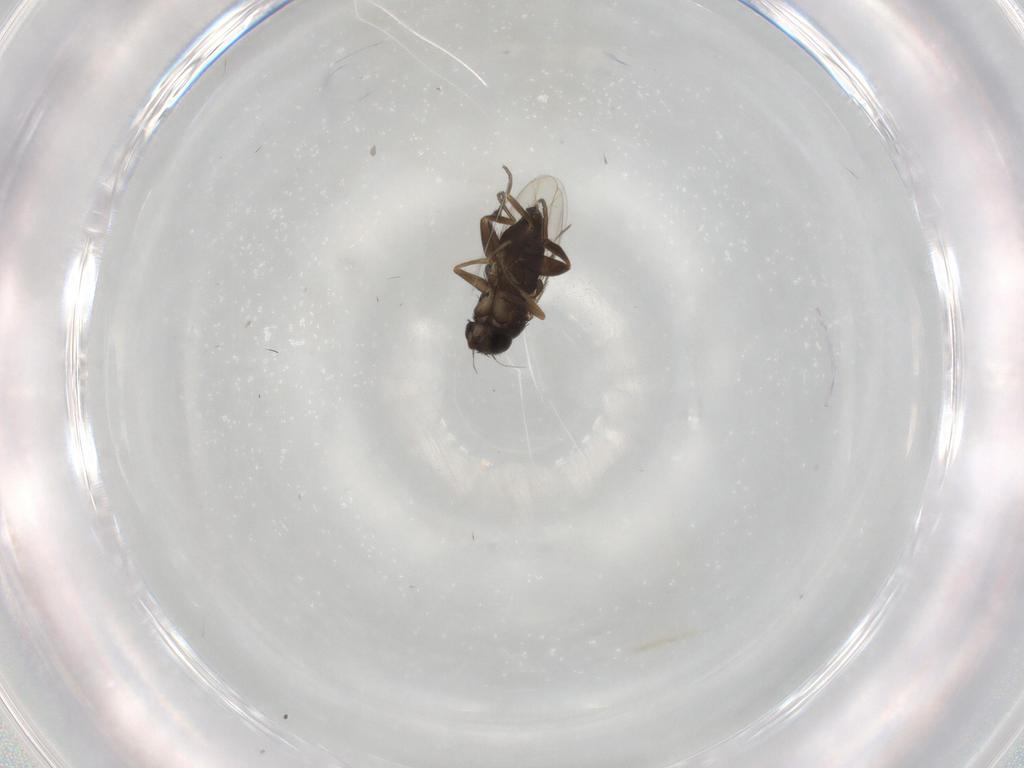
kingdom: Animalia
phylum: Arthropoda
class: Insecta
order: Diptera
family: Phoridae
